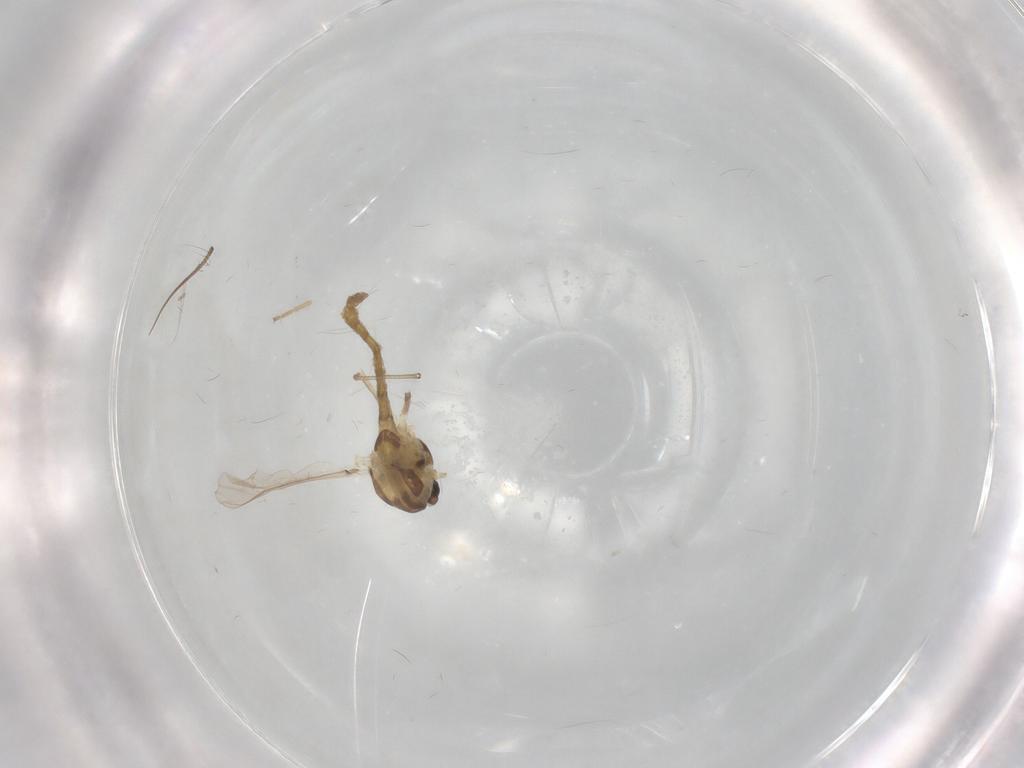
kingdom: Animalia
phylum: Arthropoda
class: Insecta
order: Diptera
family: Chironomidae
